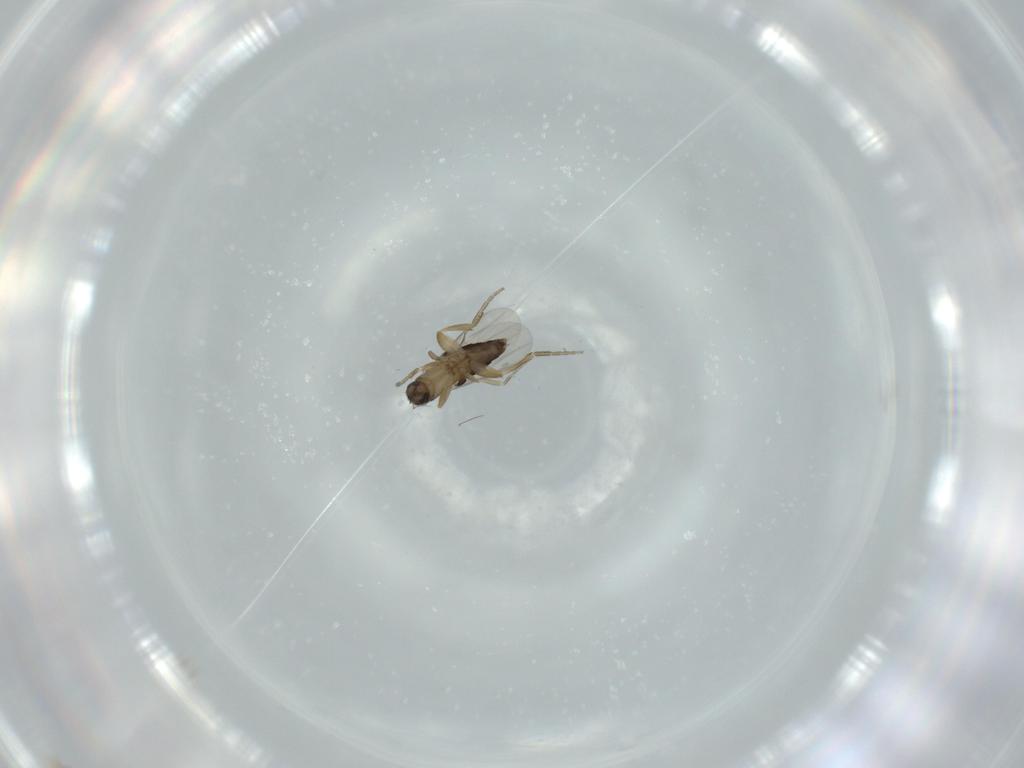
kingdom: Animalia
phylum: Arthropoda
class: Insecta
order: Diptera
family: Phoridae
